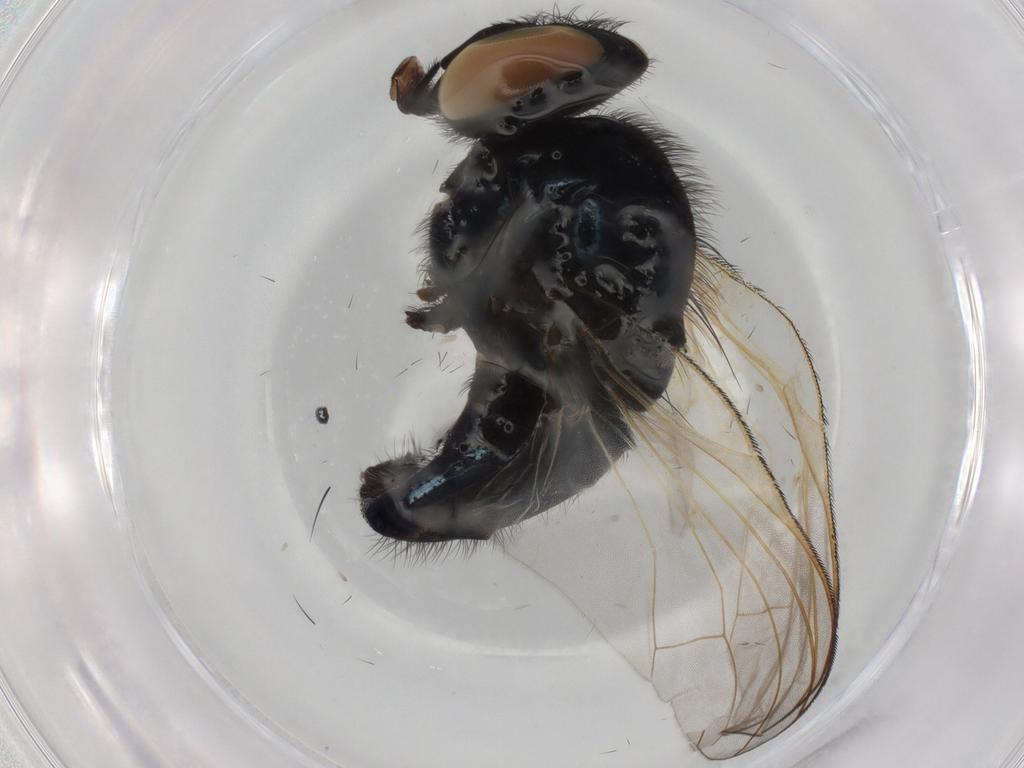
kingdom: Animalia
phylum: Arthropoda
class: Insecta
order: Diptera
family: Lonchaeidae
